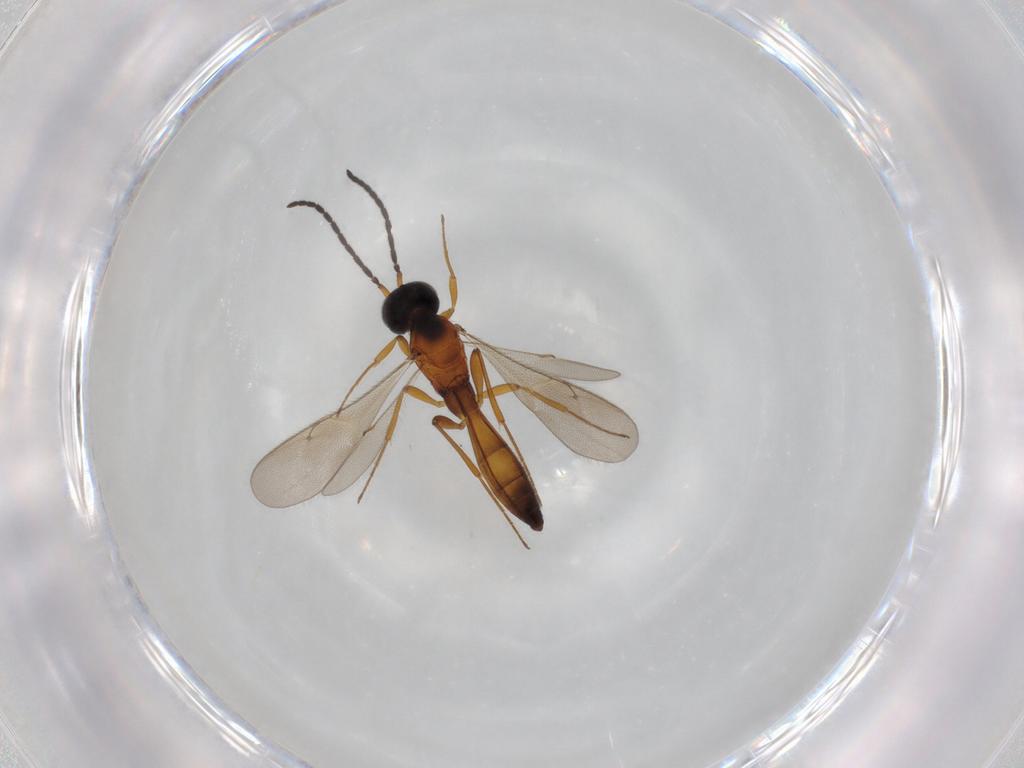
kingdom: Animalia
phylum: Arthropoda
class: Insecta
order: Hymenoptera
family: Scelionidae
